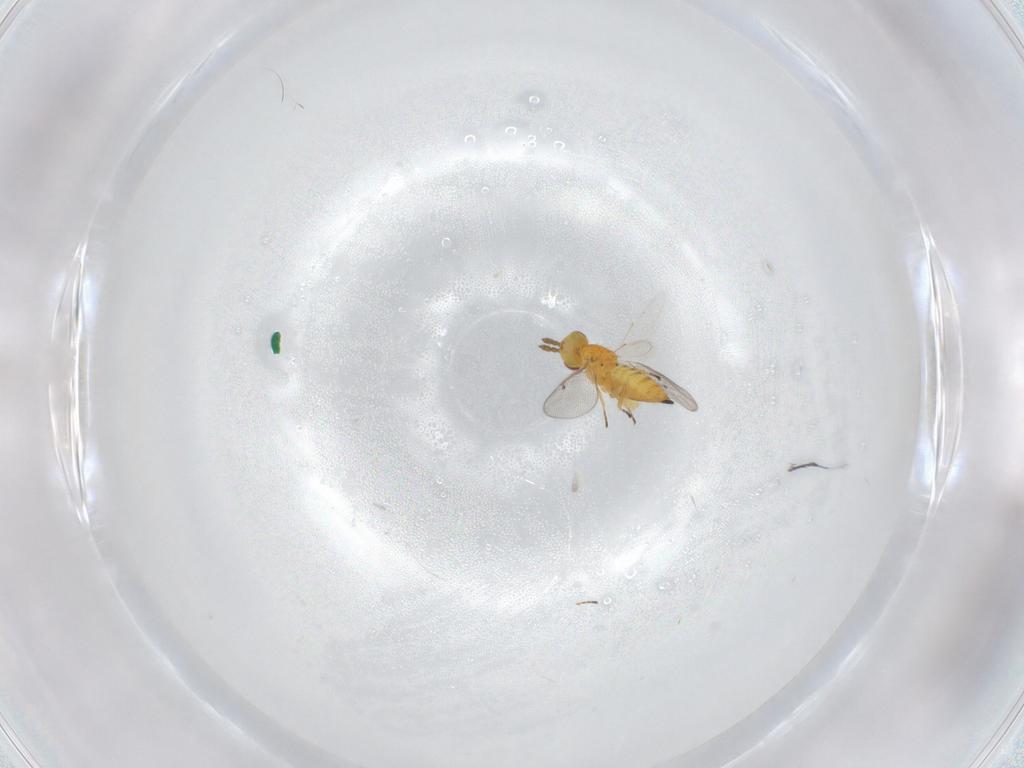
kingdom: Animalia
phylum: Arthropoda
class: Insecta
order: Hymenoptera
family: Eulophidae
